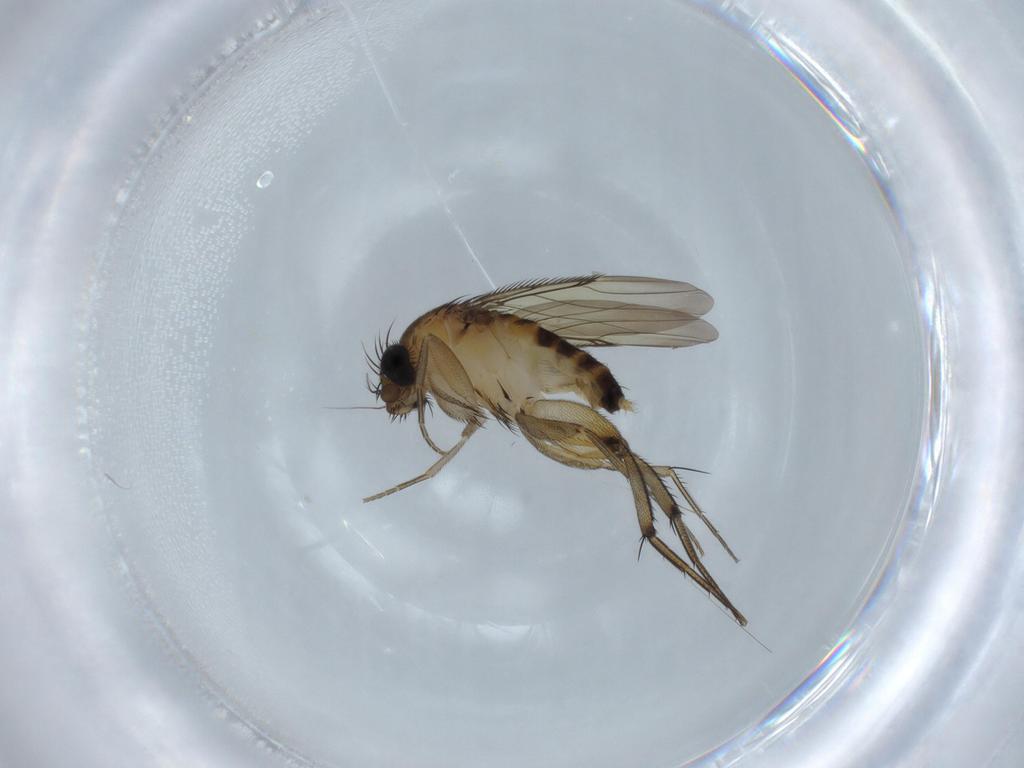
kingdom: Animalia
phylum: Arthropoda
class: Insecta
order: Diptera
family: Phoridae
